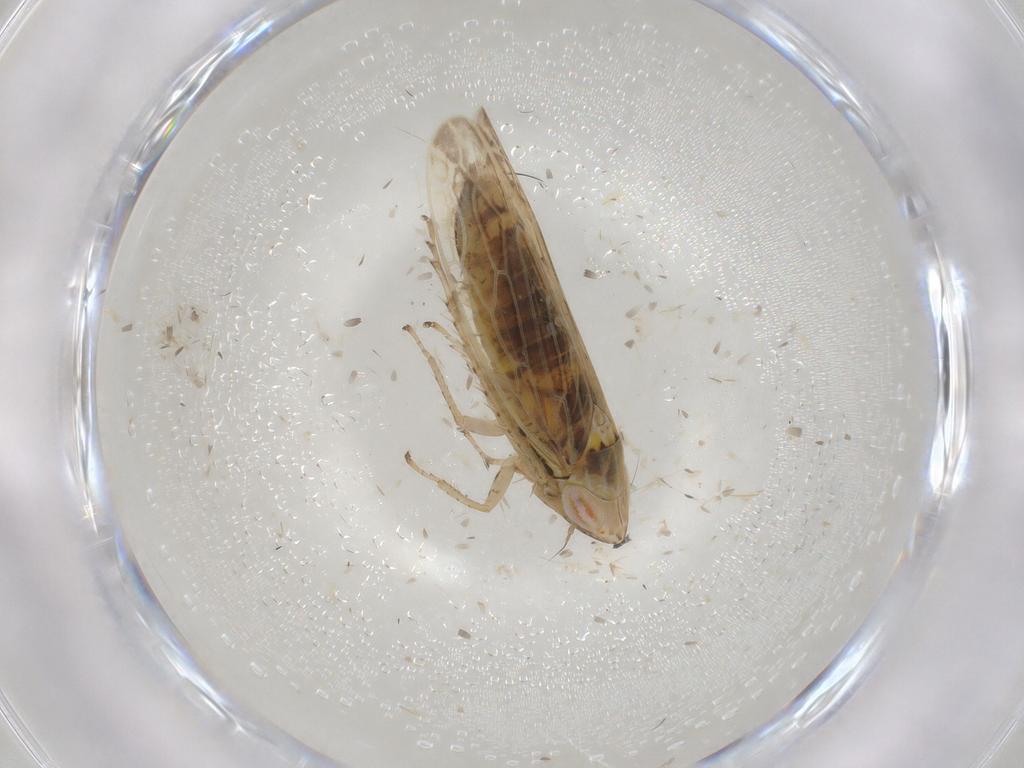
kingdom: Animalia
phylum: Arthropoda
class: Insecta
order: Hemiptera
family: Cicadellidae
